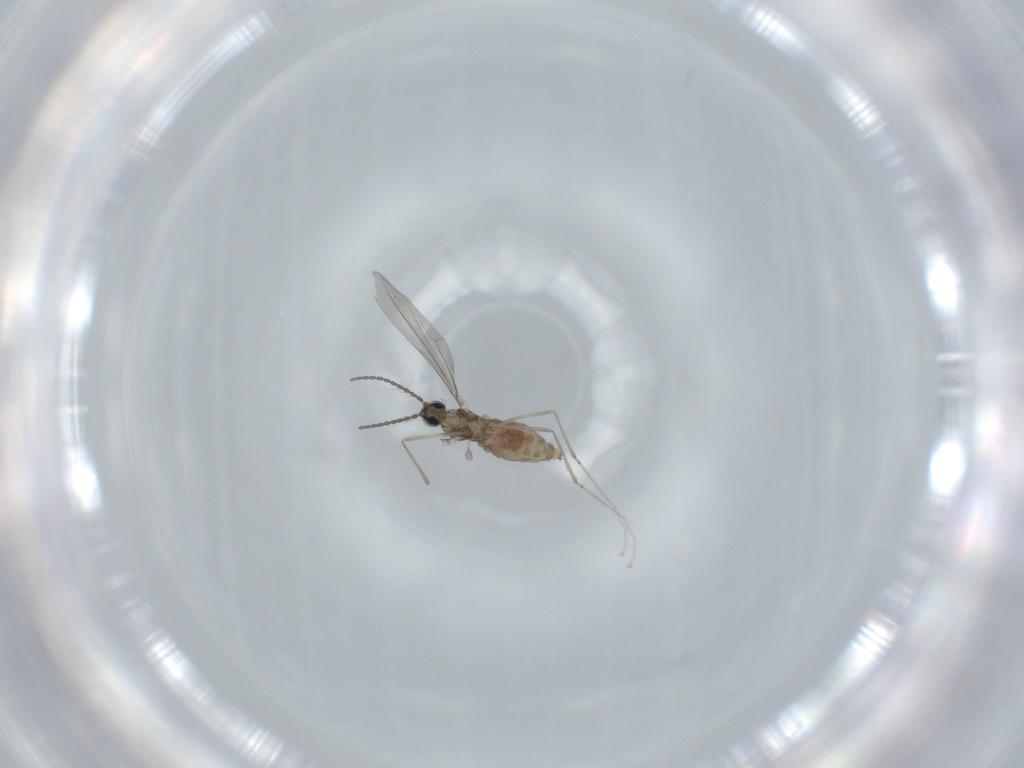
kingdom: Animalia
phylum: Arthropoda
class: Insecta
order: Diptera
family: Cecidomyiidae
